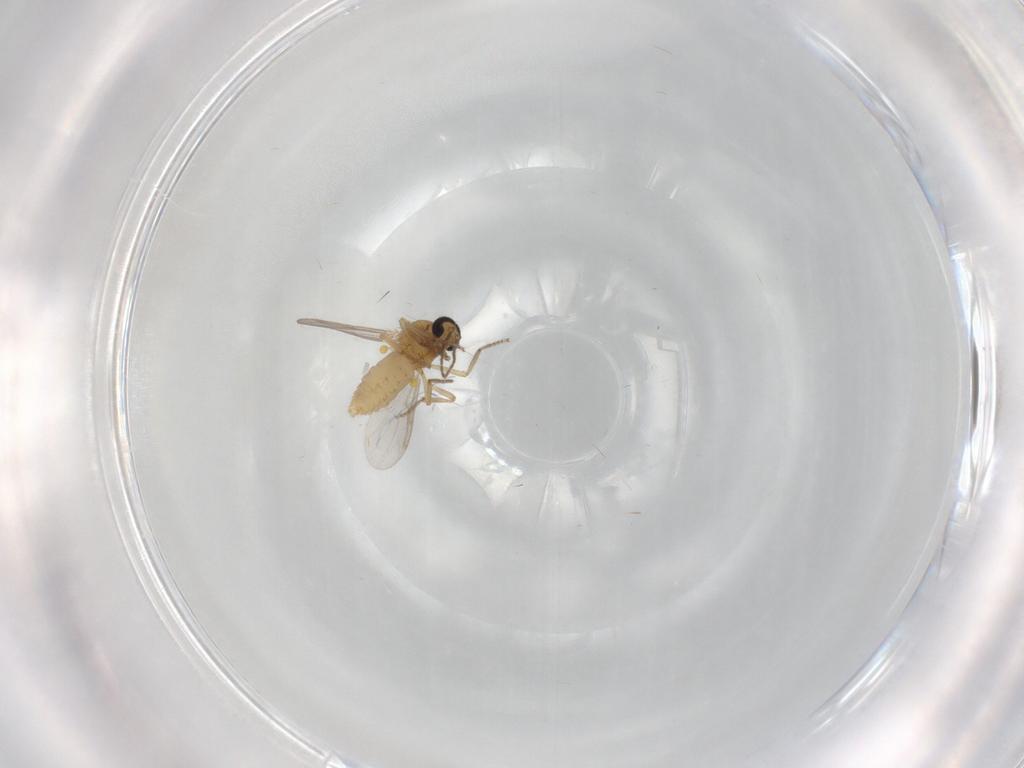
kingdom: Animalia
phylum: Arthropoda
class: Insecta
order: Diptera
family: Ceratopogonidae
